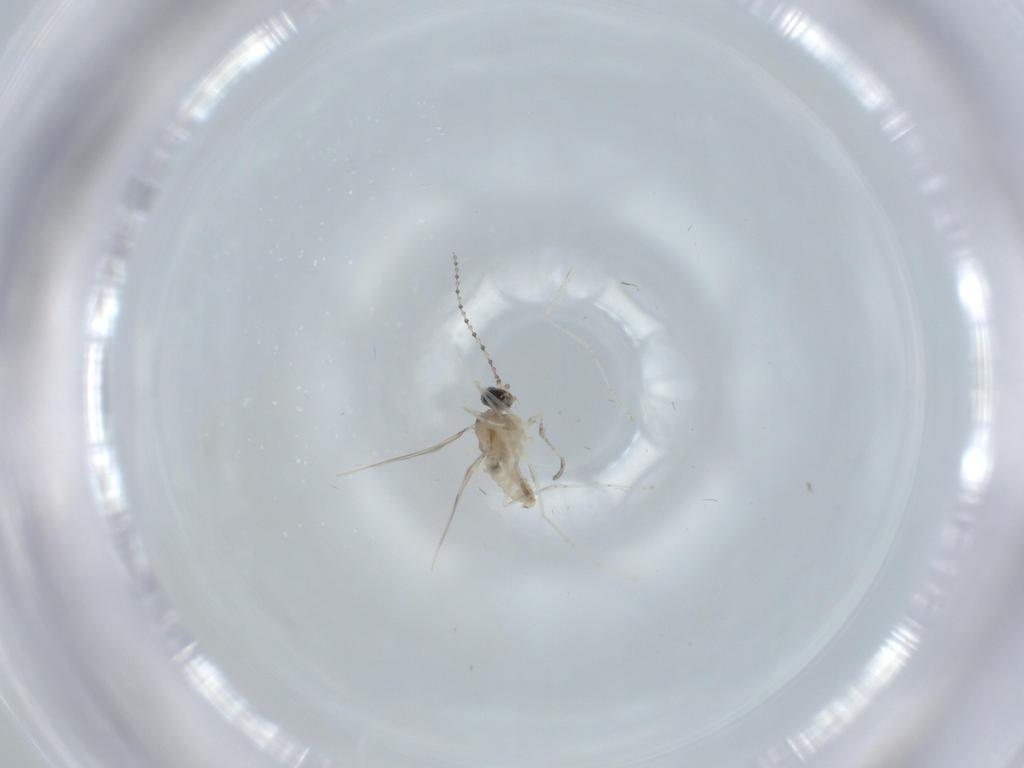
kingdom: Animalia
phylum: Arthropoda
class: Insecta
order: Diptera
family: Cecidomyiidae
